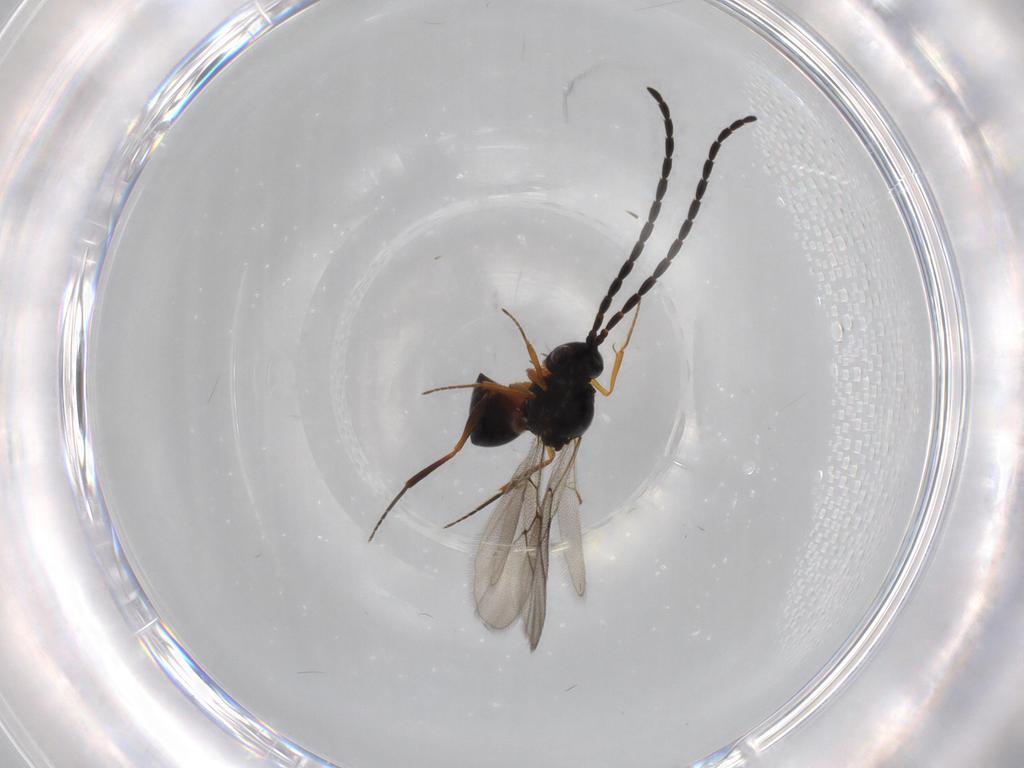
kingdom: Animalia
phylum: Arthropoda
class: Insecta
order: Hymenoptera
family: Figitidae
